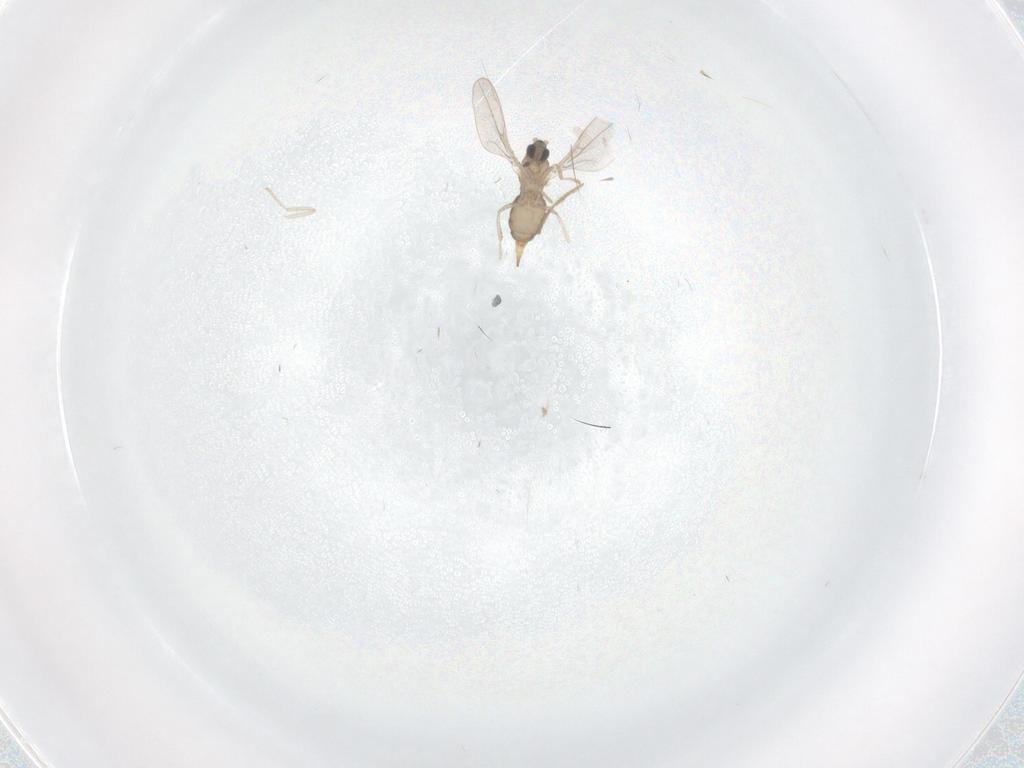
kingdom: Animalia
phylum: Arthropoda
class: Insecta
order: Diptera
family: Cecidomyiidae
